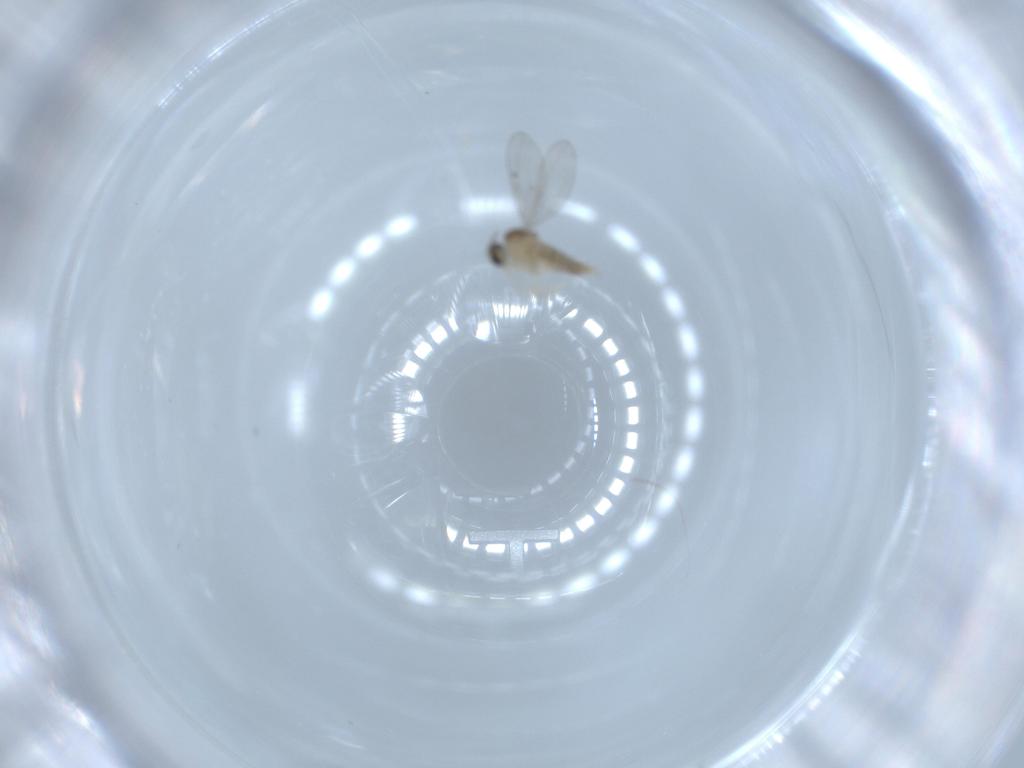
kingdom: Animalia
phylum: Arthropoda
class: Insecta
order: Diptera
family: Cecidomyiidae
